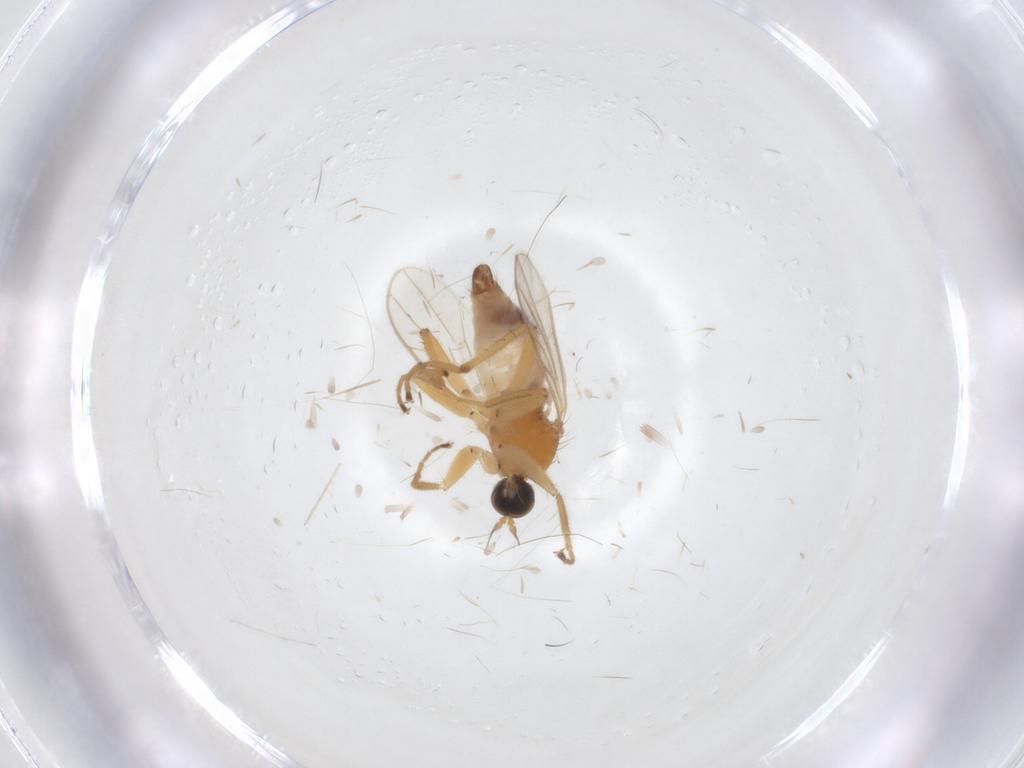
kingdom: Animalia
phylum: Arthropoda
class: Insecta
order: Diptera
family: Hybotidae
